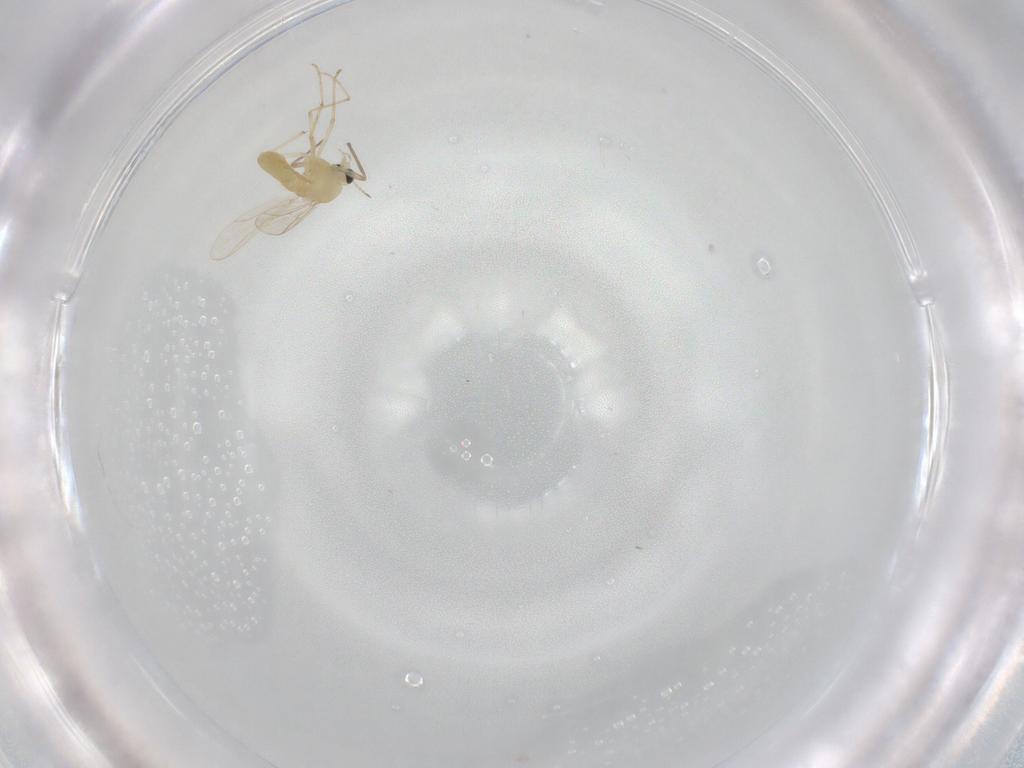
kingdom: Animalia
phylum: Arthropoda
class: Insecta
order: Diptera
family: Chironomidae
